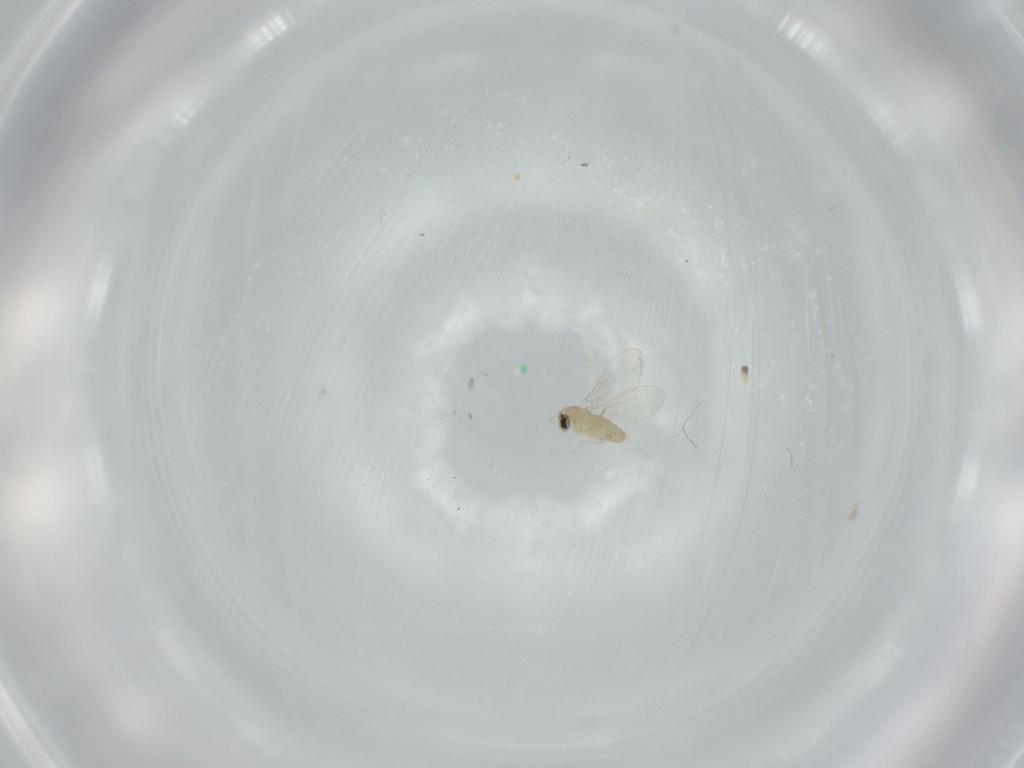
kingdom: Animalia
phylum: Arthropoda
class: Insecta
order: Diptera
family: Cecidomyiidae
